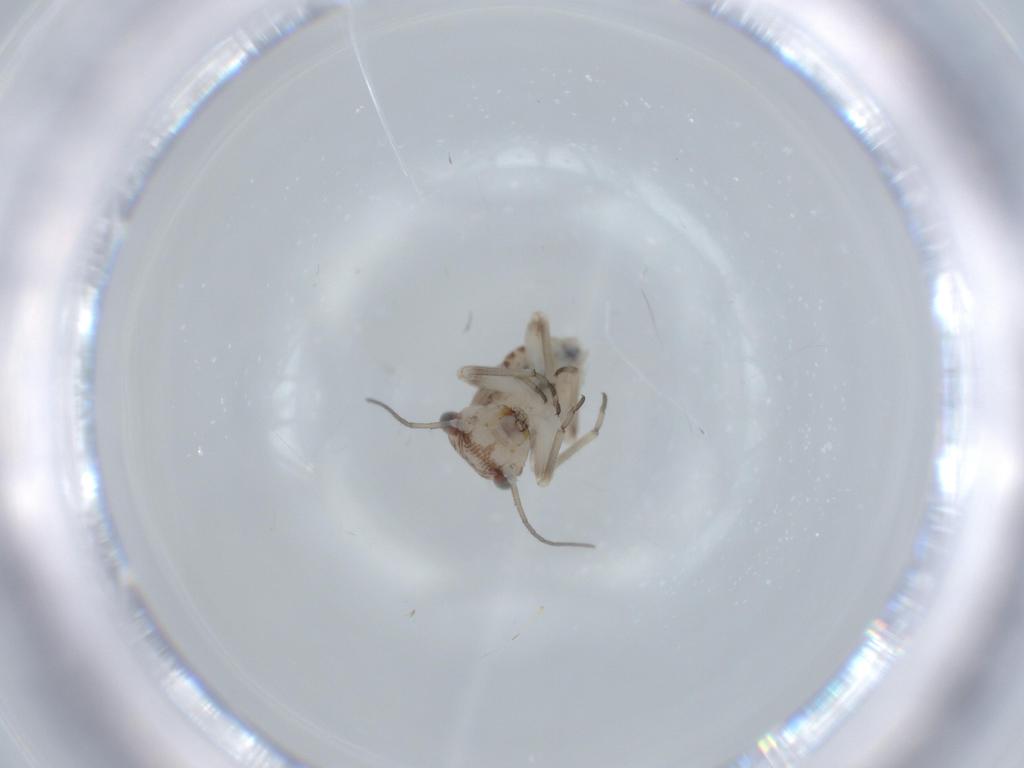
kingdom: Animalia
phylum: Arthropoda
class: Insecta
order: Psocodea
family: Psocidae
